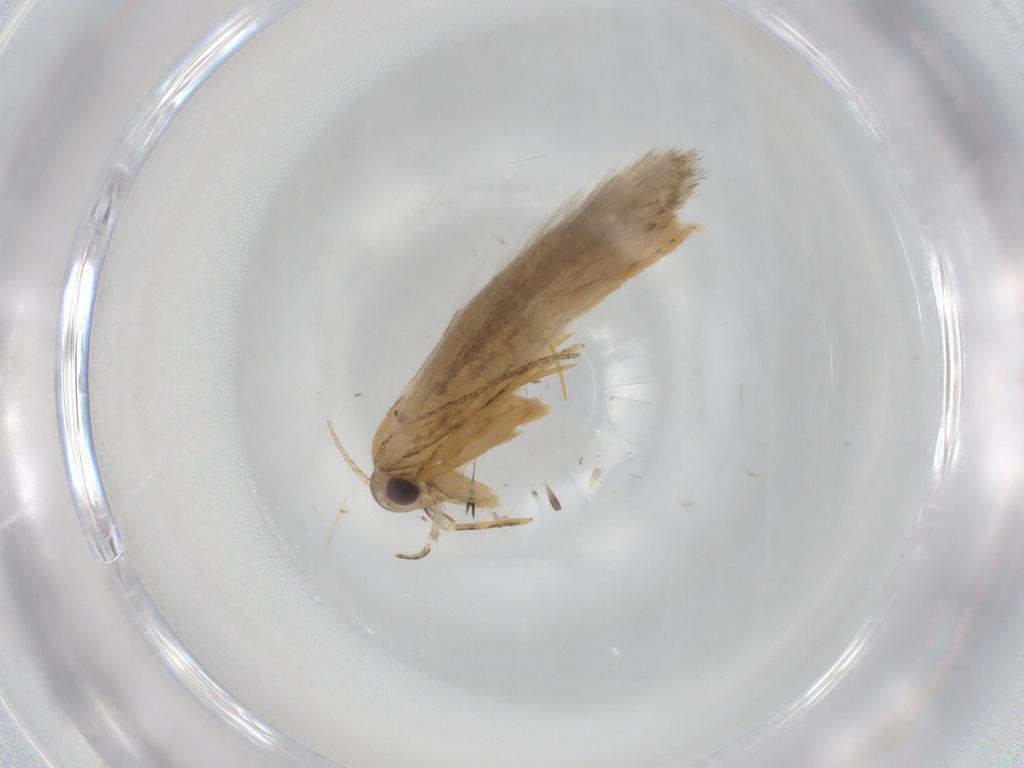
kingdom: Animalia
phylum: Arthropoda
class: Insecta
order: Lepidoptera
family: Autostichidae
